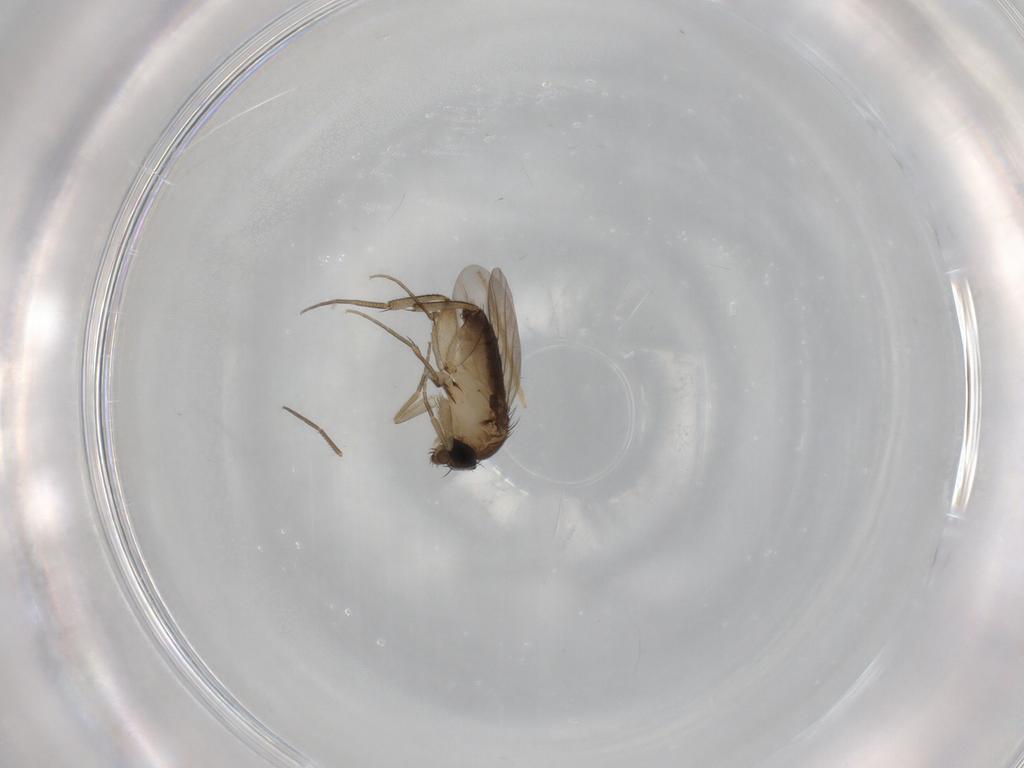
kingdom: Animalia
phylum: Arthropoda
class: Insecta
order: Diptera
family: Phoridae
